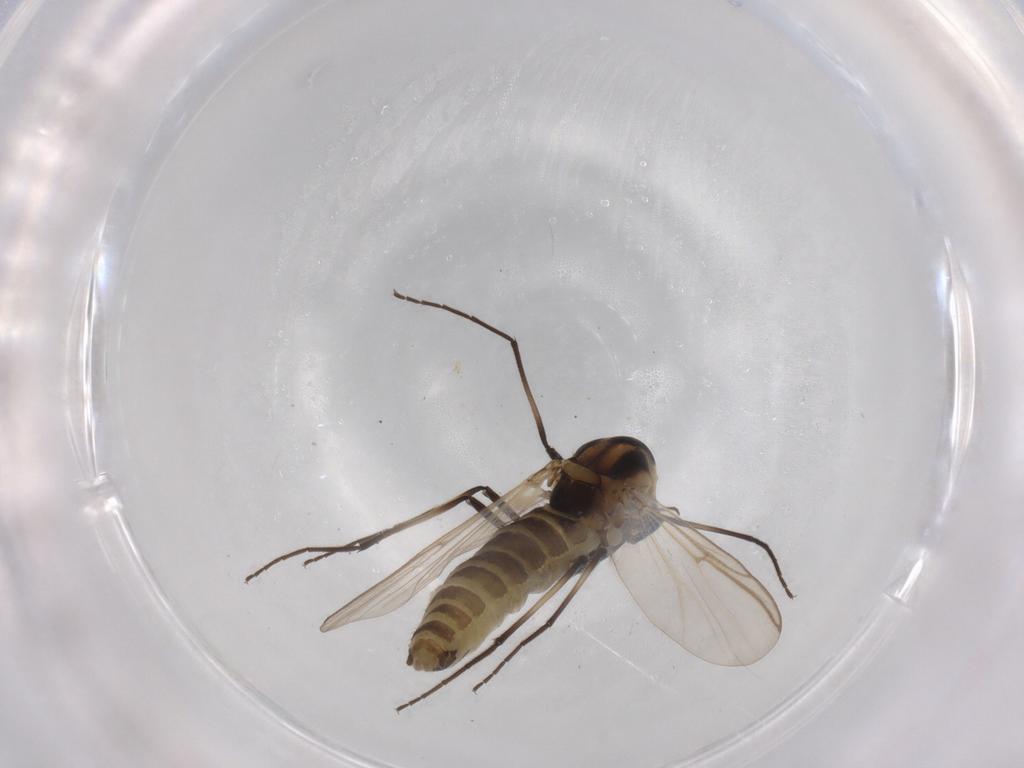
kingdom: Animalia
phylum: Arthropoda
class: Insecta
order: Diptera
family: Chironomidae
